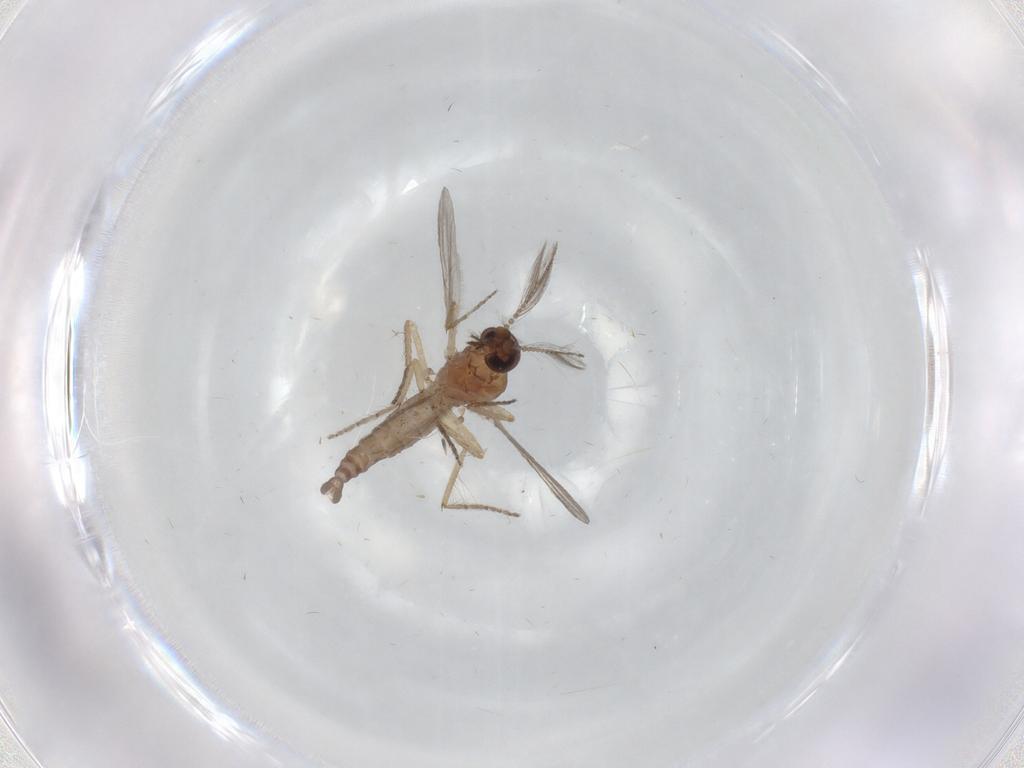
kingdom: Animalia
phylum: Arthropoda
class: Insecta
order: Diptera
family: Ceratopogonidae
